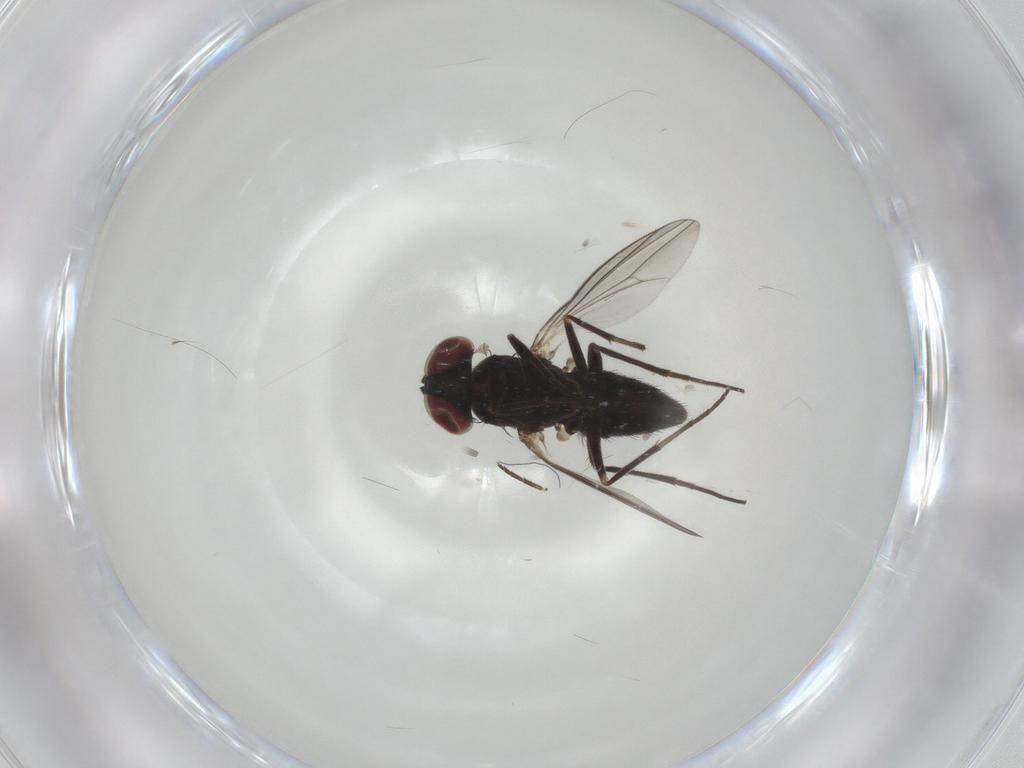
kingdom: Animalia
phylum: Arthropoda
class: Insecta
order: Diptera
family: Dolichopodidae
